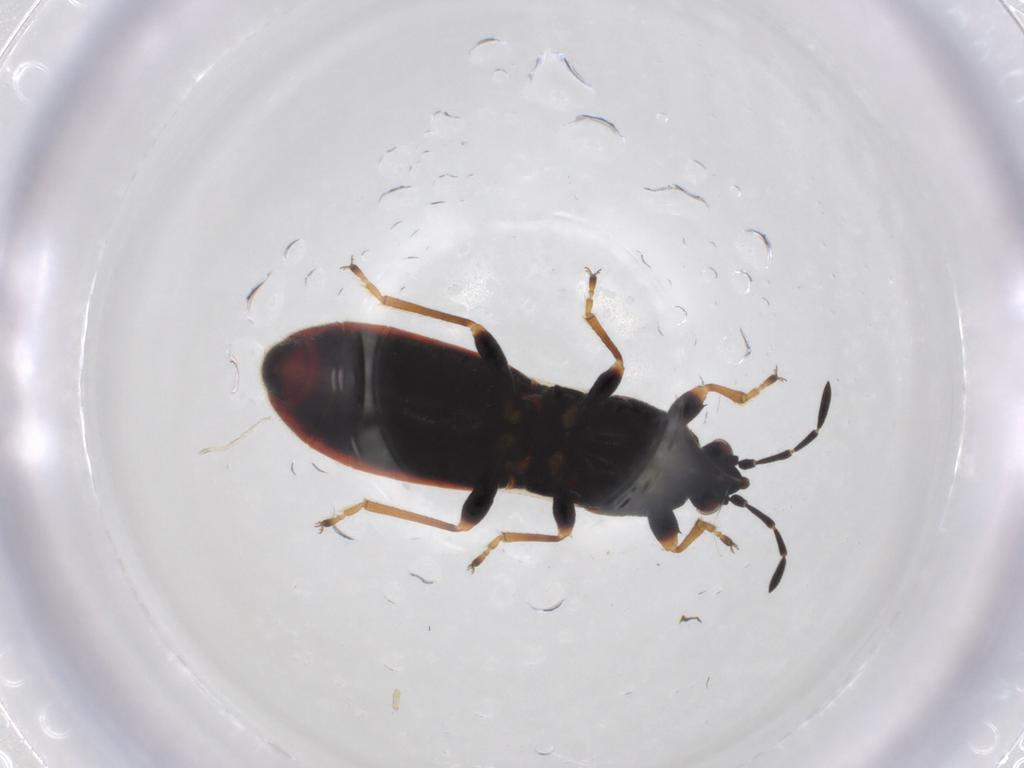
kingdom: Animalia
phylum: Arthropoda
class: Insecta
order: Hemiptera
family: Blissidae
